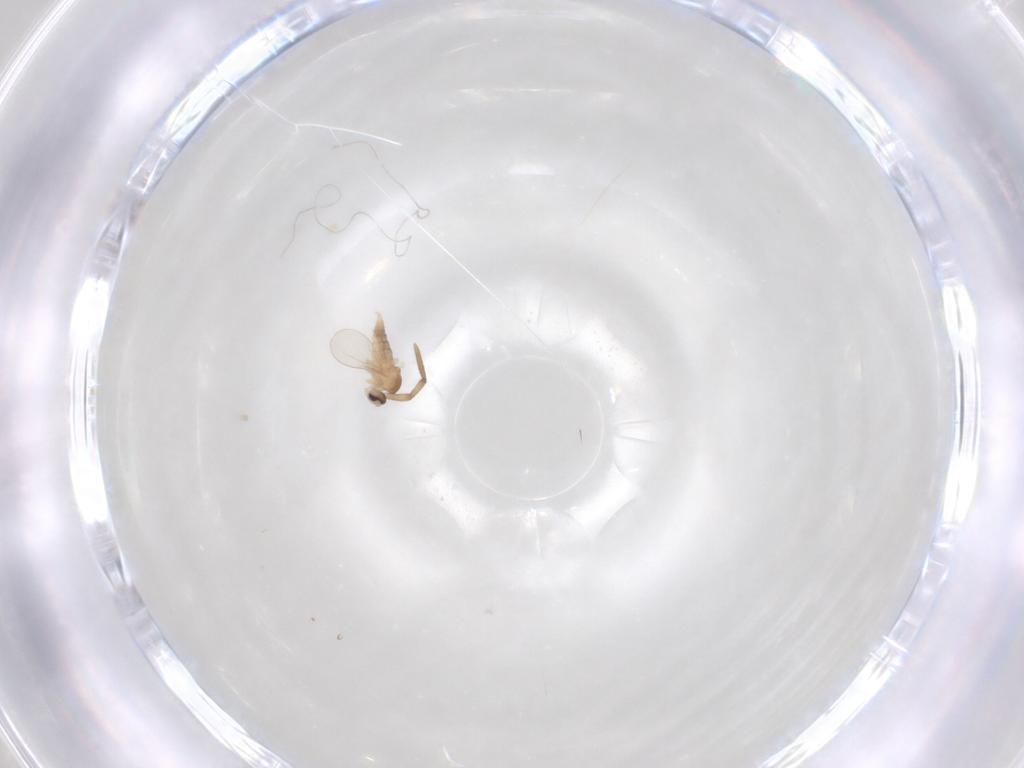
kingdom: Animalia
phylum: Arthropoda
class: Insecta
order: Diptera
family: Cecidomyiidae
